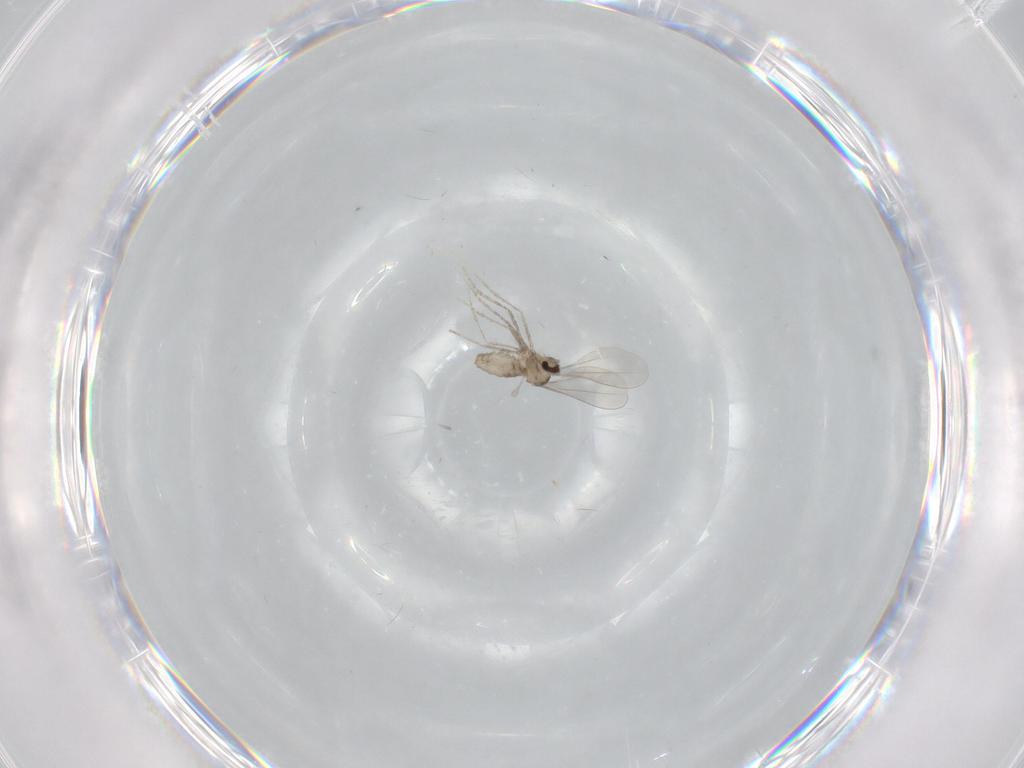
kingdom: Animalia
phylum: Arthropoda
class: Insecta
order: Diptera
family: Cecidomyiidae
